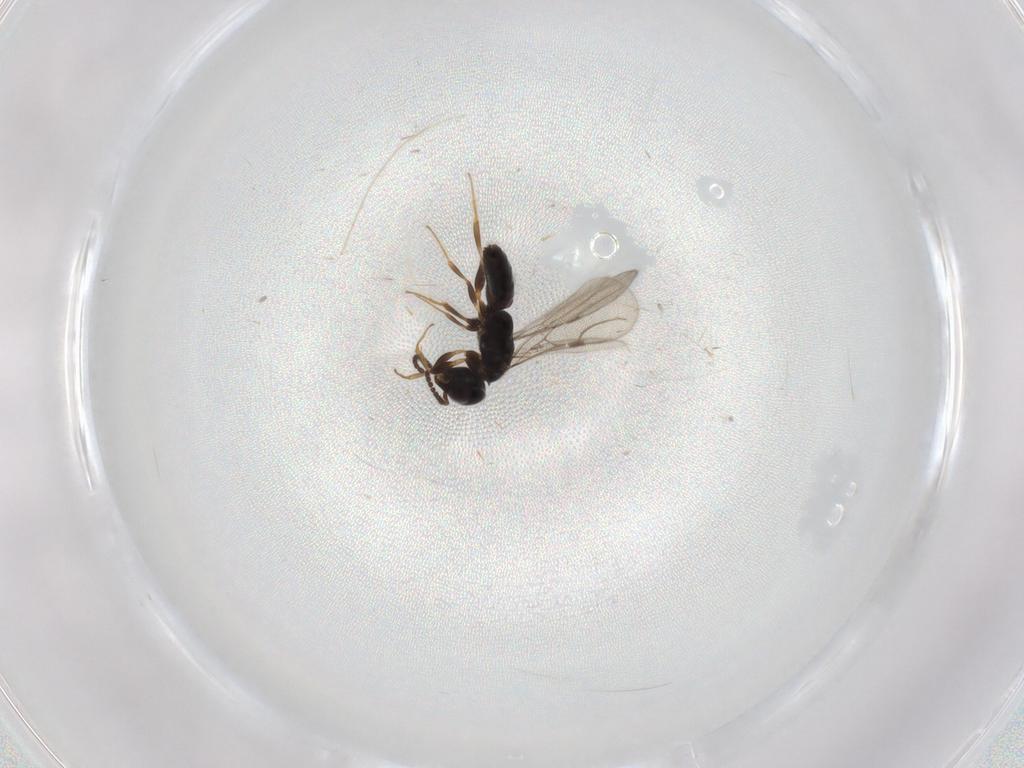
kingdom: Animalia
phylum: Arthropoda
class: Insecta
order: Hymenoptera
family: Bethylidae
